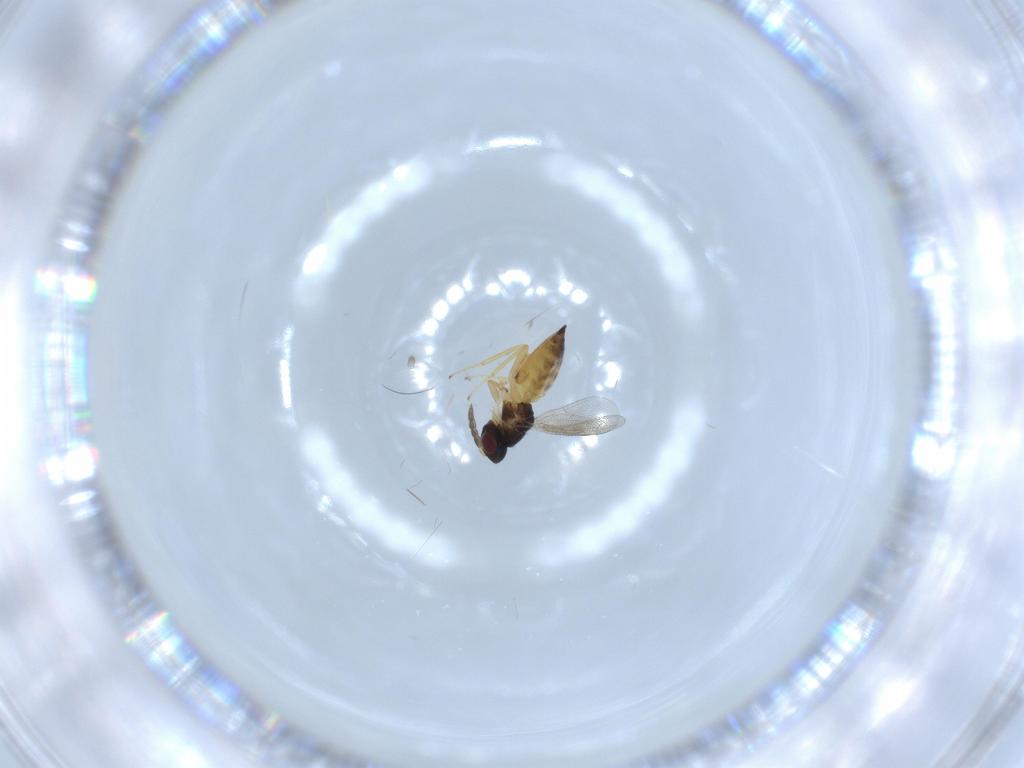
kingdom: Animalia
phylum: Arthropoda
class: Insecta
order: Hymenoptera
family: Eulophidae
